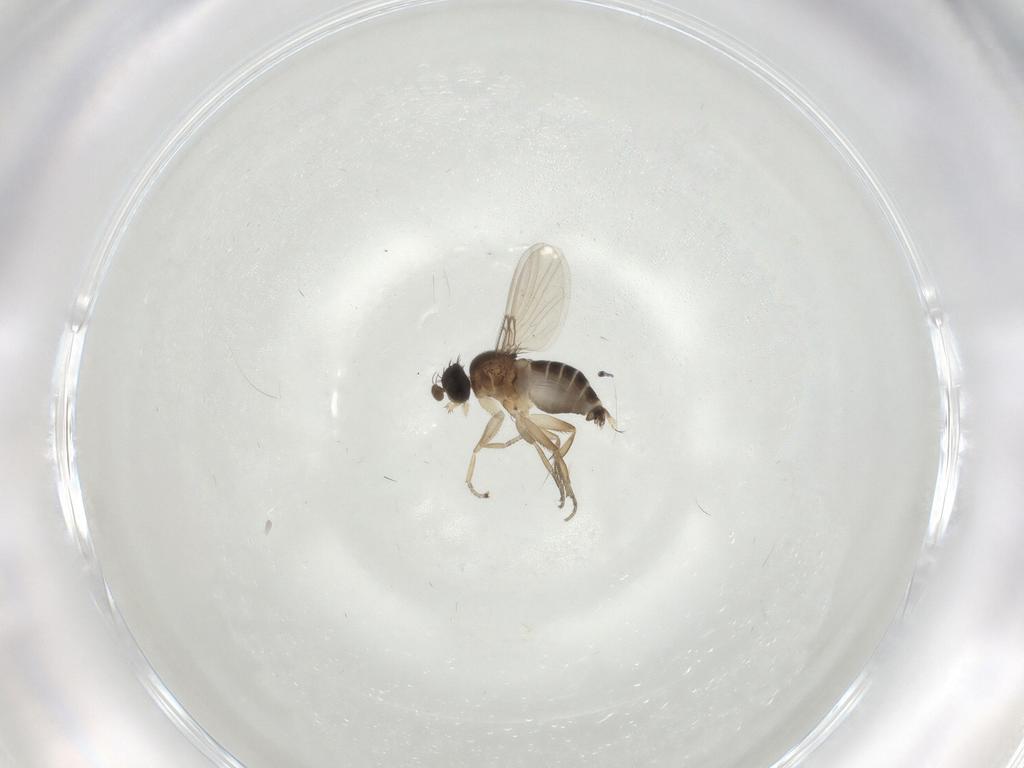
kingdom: Animalia
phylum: Arthropoda
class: Insecta
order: Diptera
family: Phoridae
